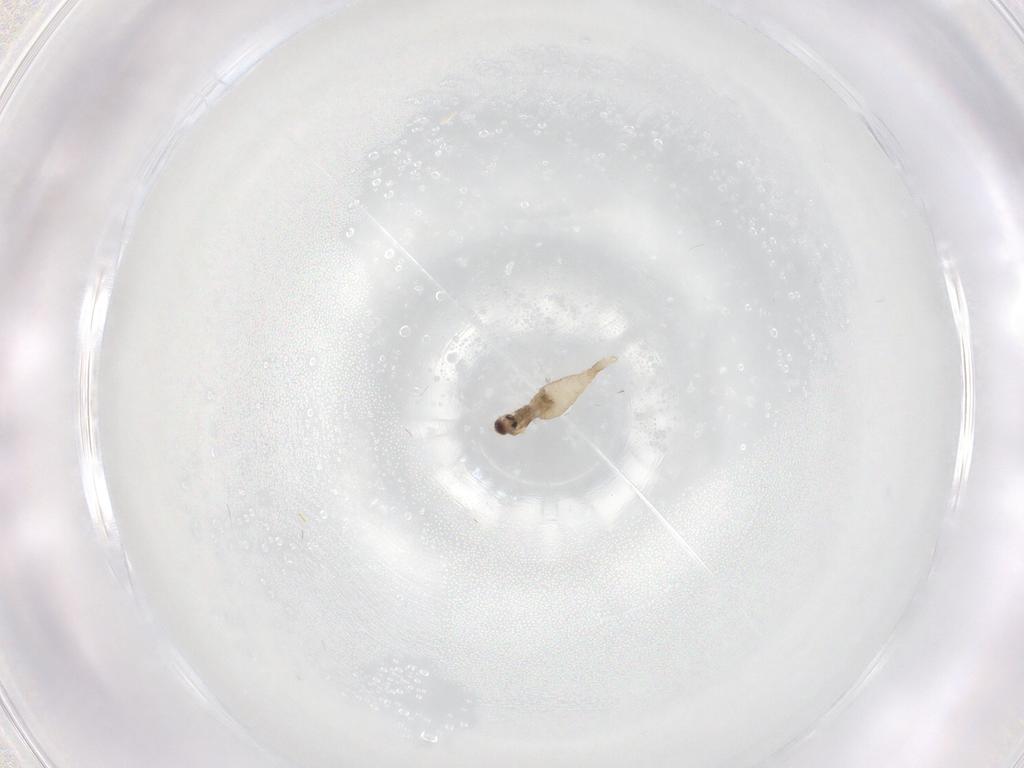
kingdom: Animalia
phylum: Arthropoda
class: Insecta
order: Diptera
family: Cecidomyiidae
